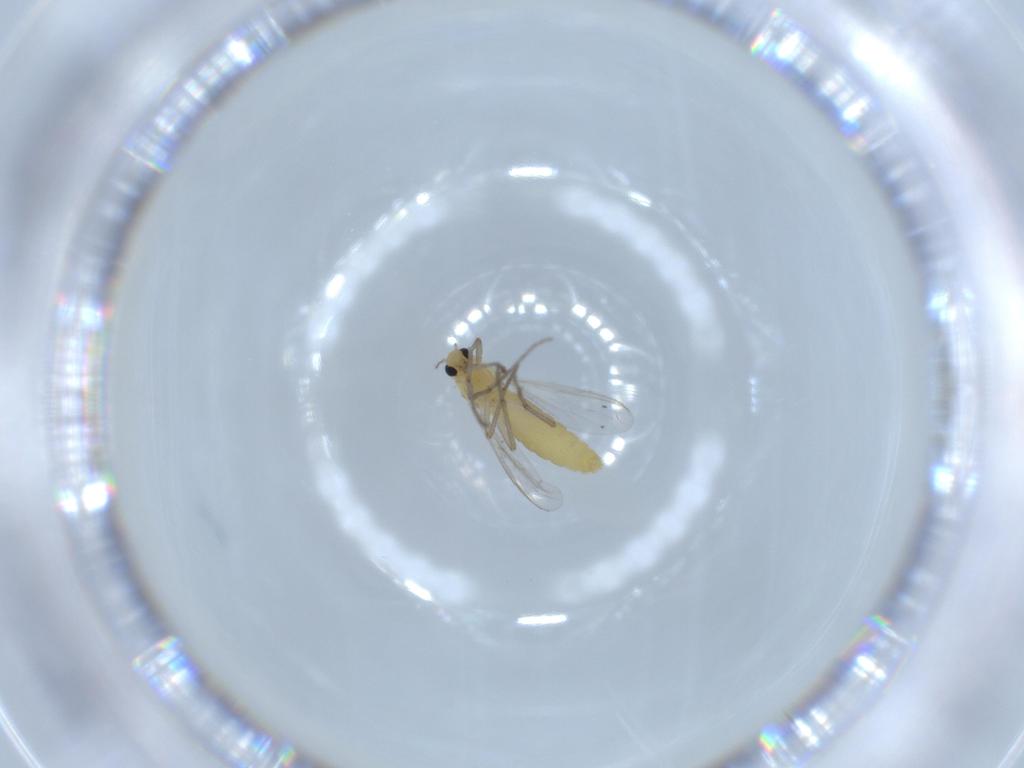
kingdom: Animalia
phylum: Arthropoda
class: Insecta
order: Diptera
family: Chironomidae
